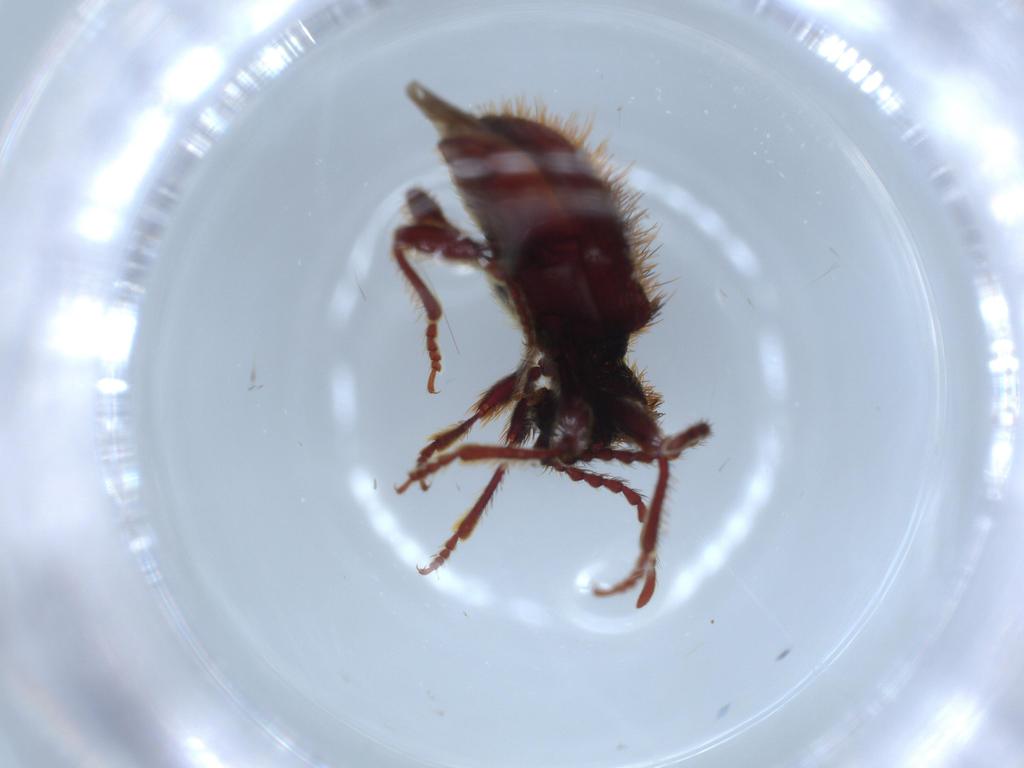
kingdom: Animalia
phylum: Arthropoda
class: Insecta
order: Coleoptera
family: Ptinidae
